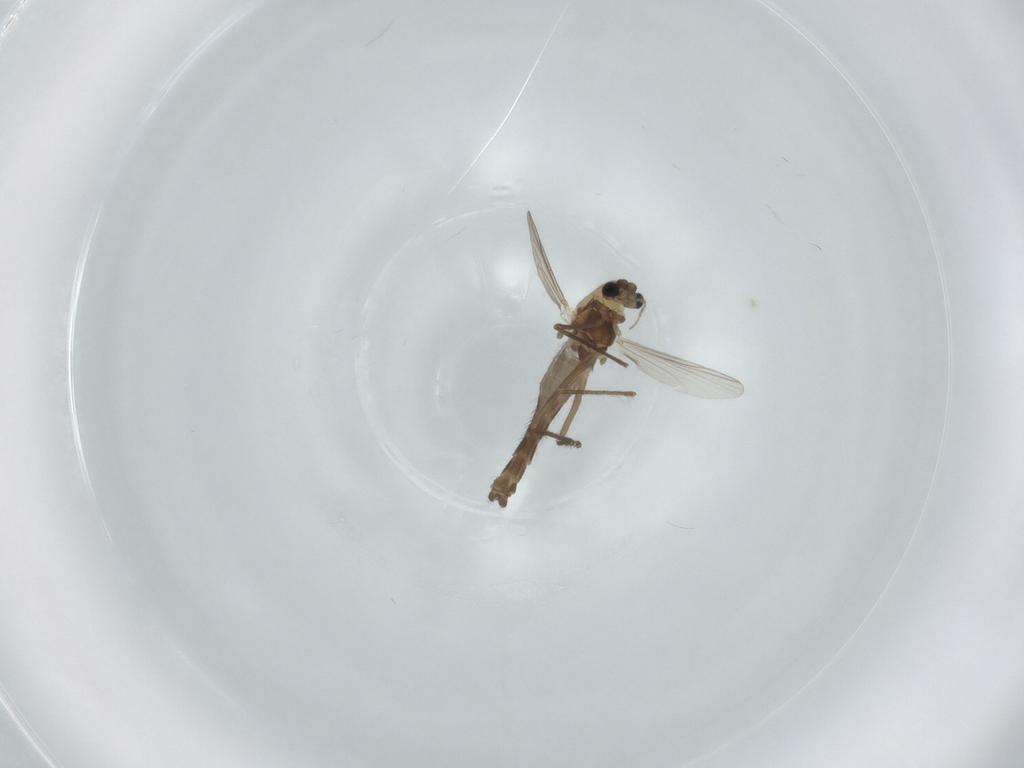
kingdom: Animalia
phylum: Arthropoda
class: Insecta
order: Diptera
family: Chironomidae
